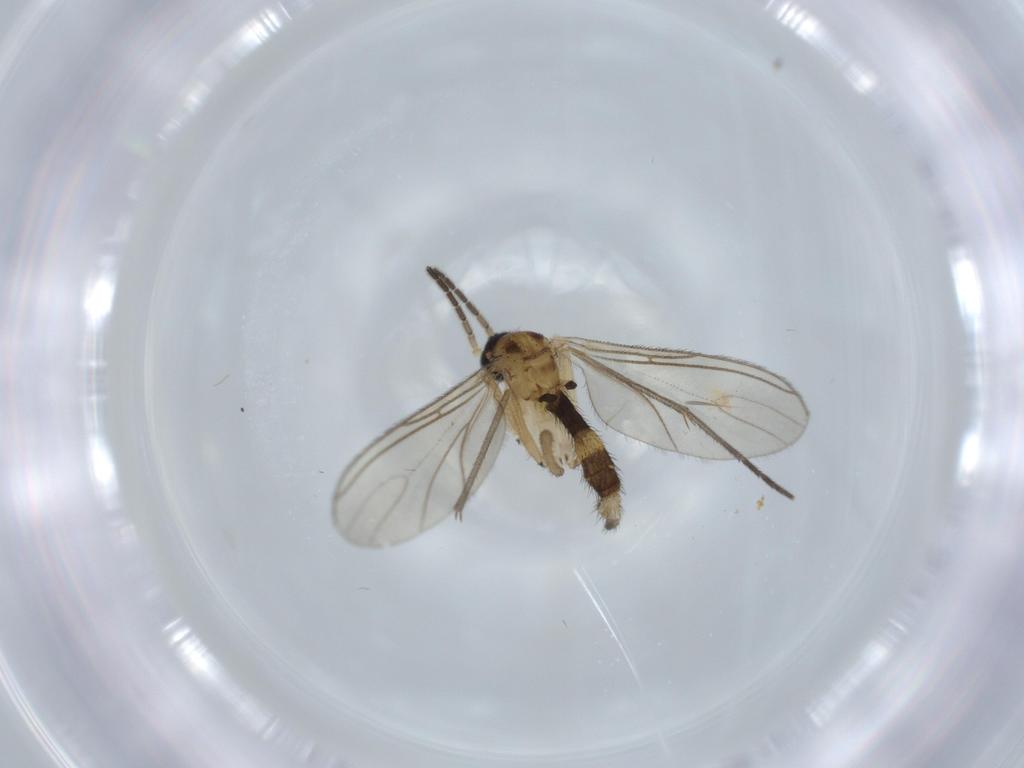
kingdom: Animalia
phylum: Arthropoda
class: Insecta
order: Diptera
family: Sciaridae
